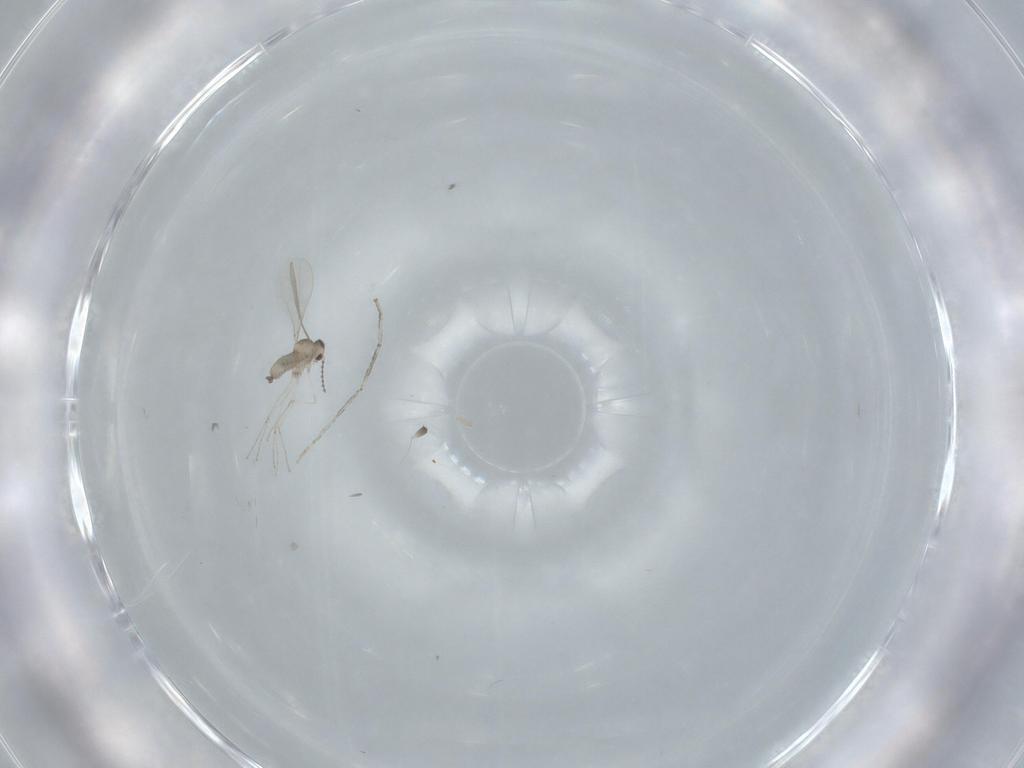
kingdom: Animalia
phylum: Arthropoda
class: Insecta
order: Diptera
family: Cecidomyiidae
